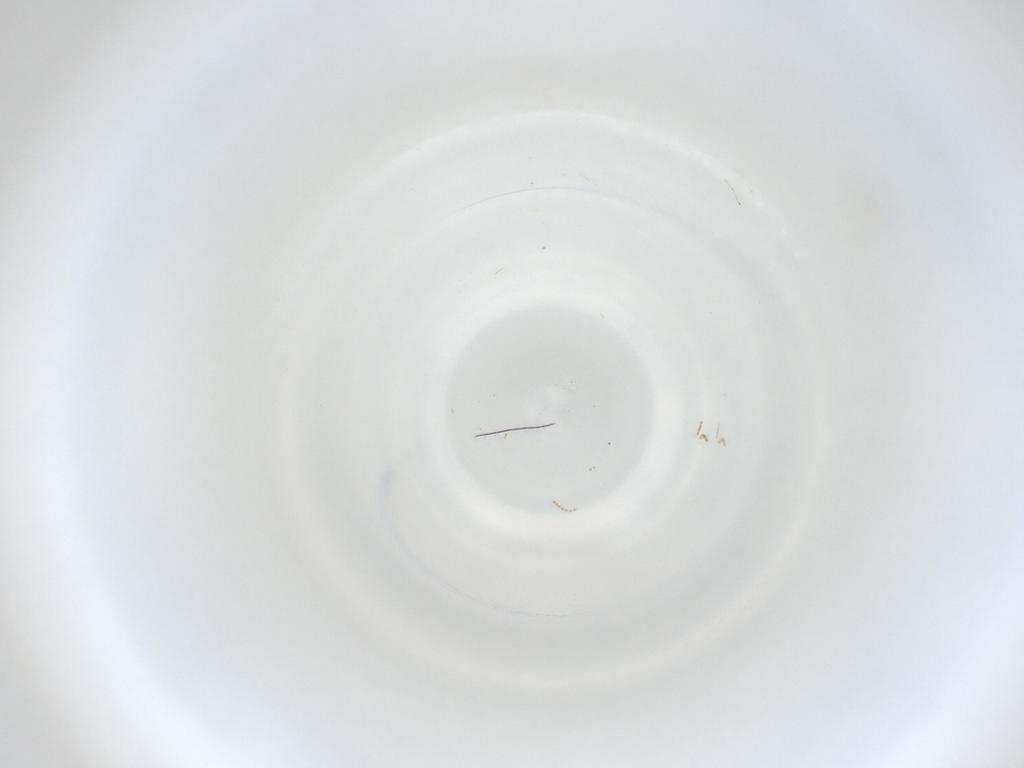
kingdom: Animalia
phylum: Arthropoda
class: Insecta
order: Diptera
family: Cecidomyiidae
